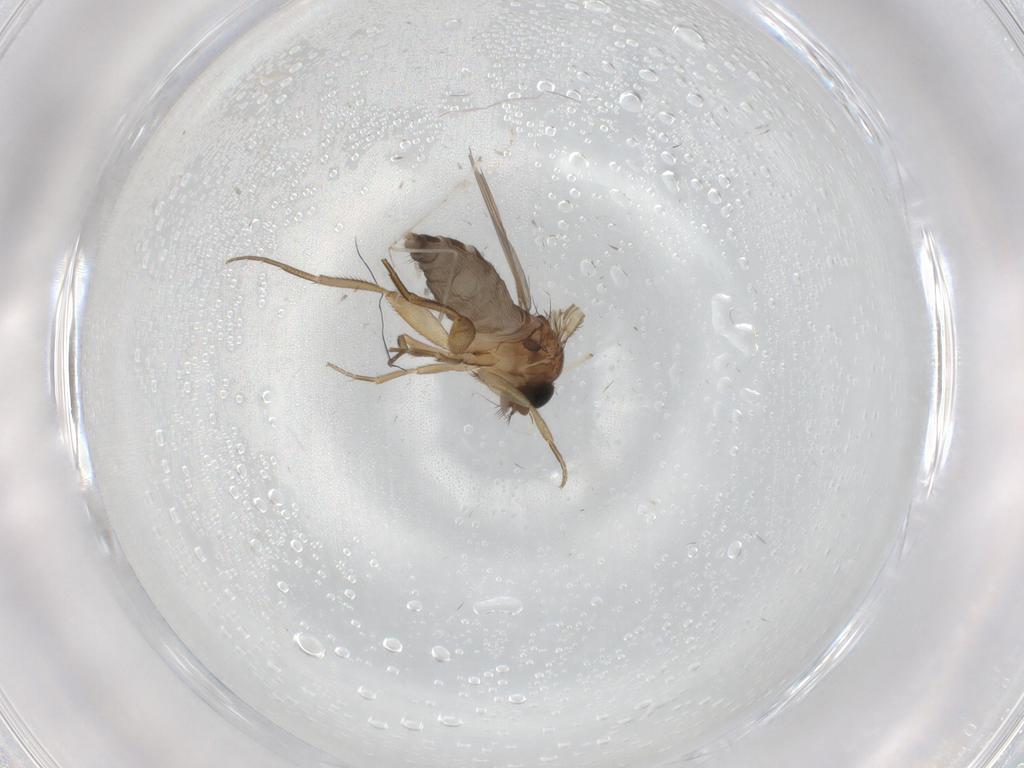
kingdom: Animalia
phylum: Arthropoda
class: Insecta
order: Diptera
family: Phoridae
